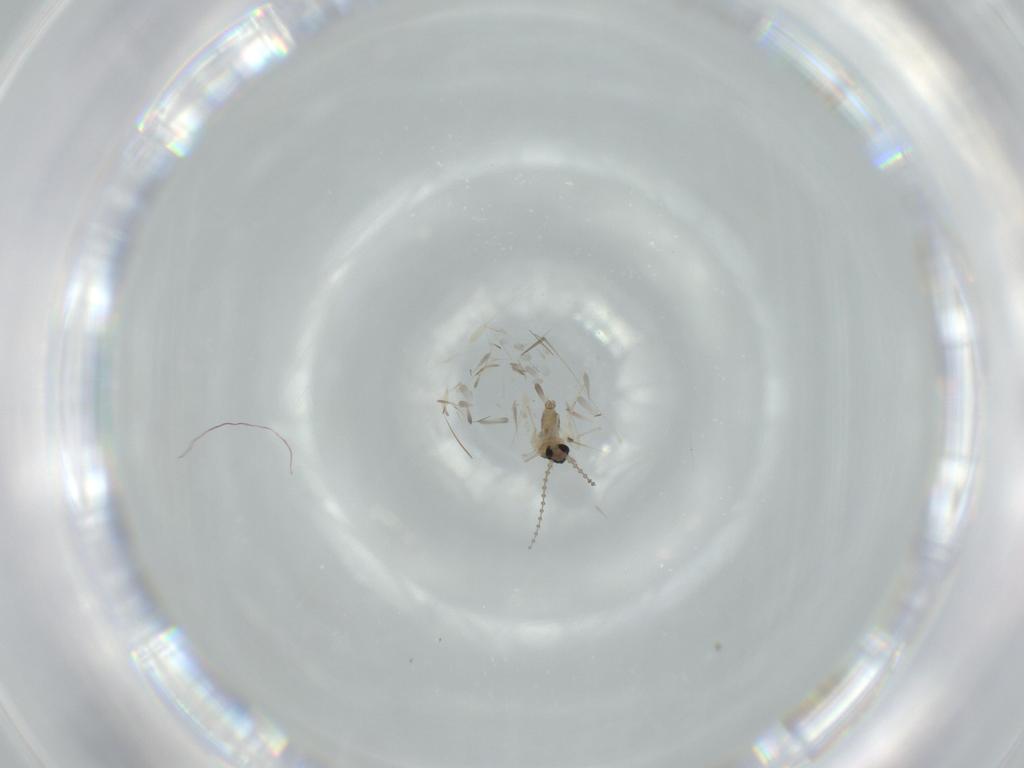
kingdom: Animalia
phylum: Arthropoda
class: Insecta
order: Diptera
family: Cecidomyiidae
